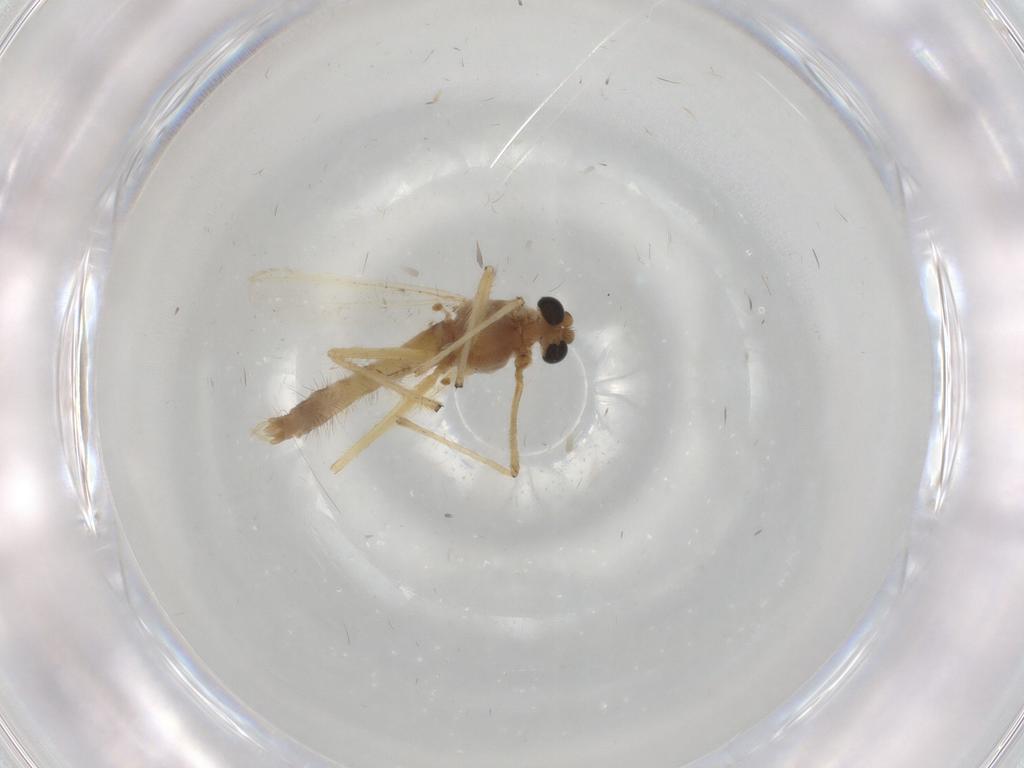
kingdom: Animalia
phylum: Arthropoda
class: Insecta
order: Diptera
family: Chironomidae
